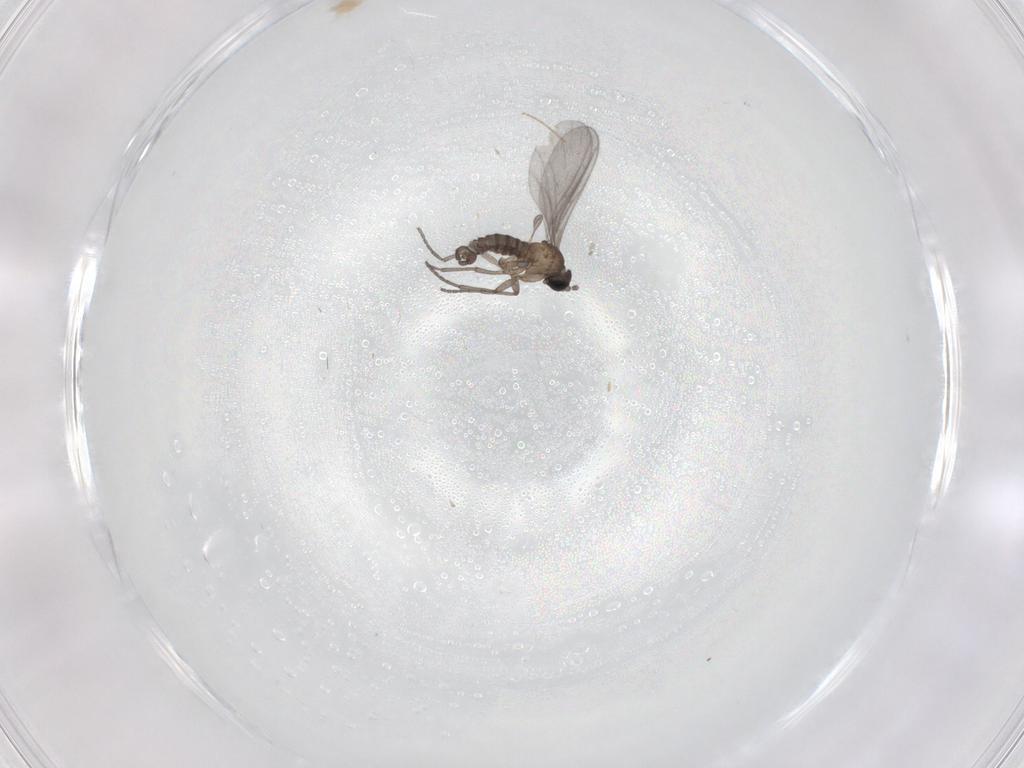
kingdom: Animalia
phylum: Arthropoda
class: Insecta
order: Diptera
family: Sciaridae
